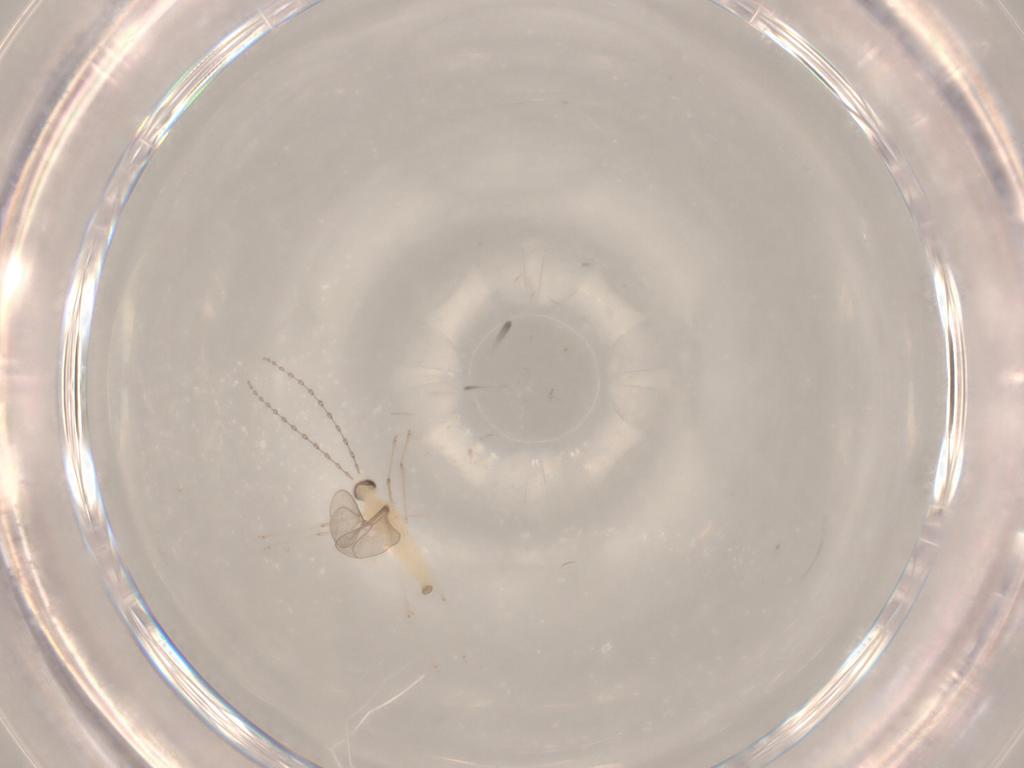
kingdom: Animalia
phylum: Arthropoda
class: Insecta
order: Diptera
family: Cecidomyiidae
